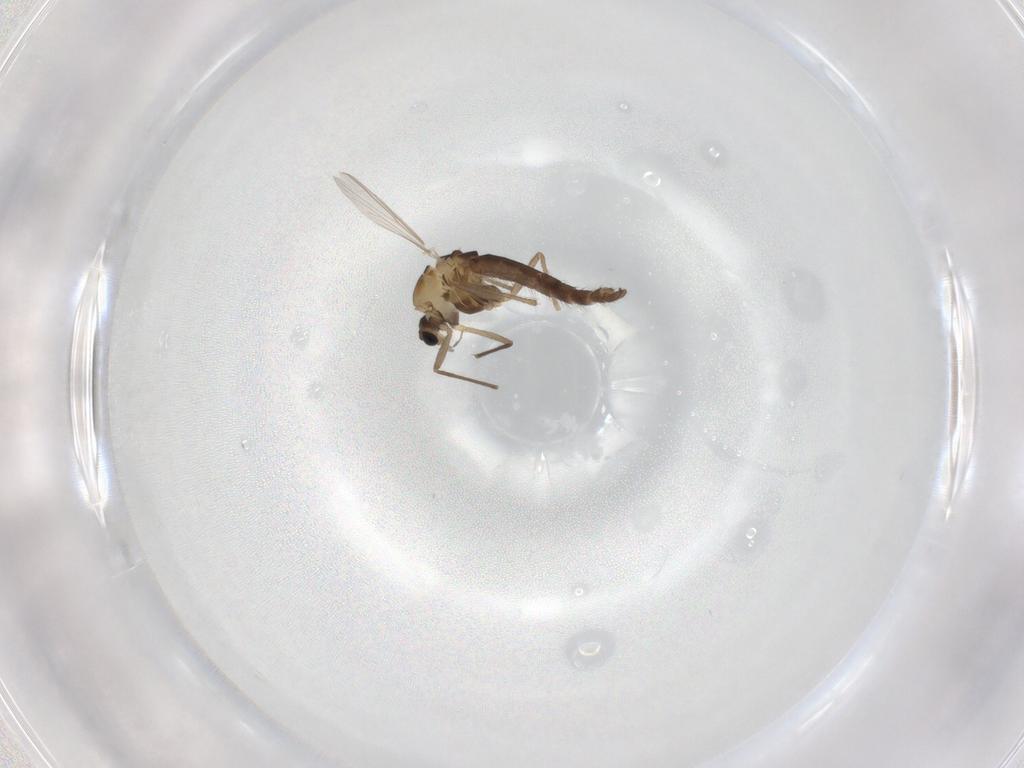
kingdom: Animalia
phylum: Arthropoda
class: Insecta
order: Diptera
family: Chironomidae
